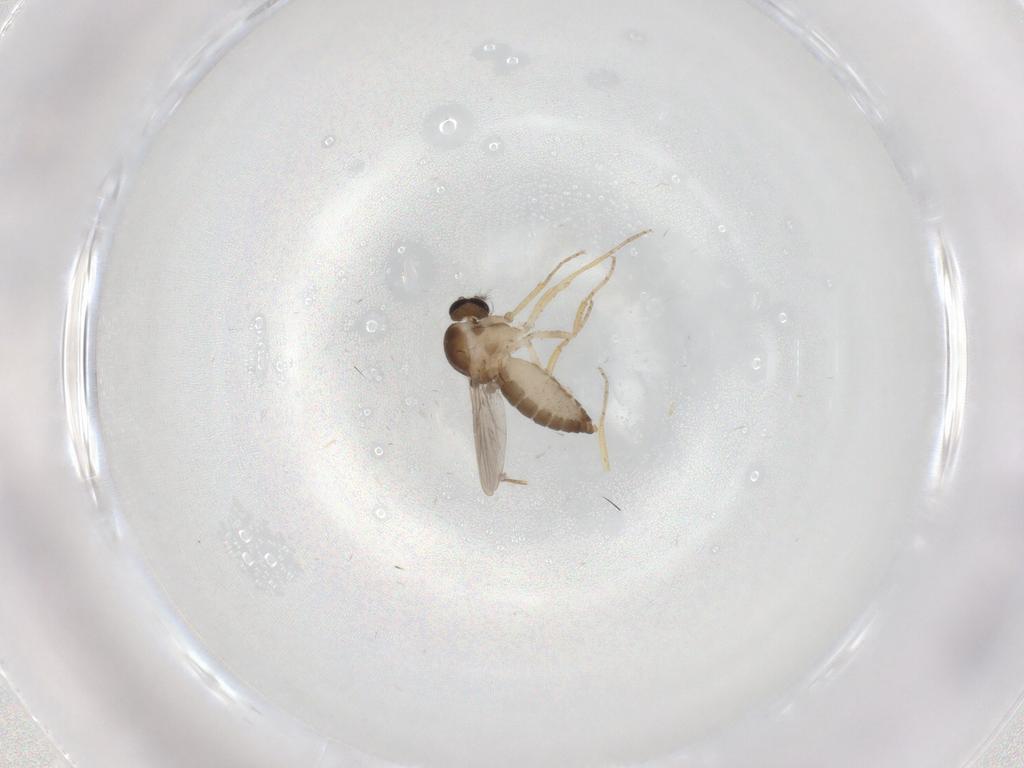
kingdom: Animalia
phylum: Arthropoda
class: Insecta
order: Diptera
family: Ceratopogonidae
